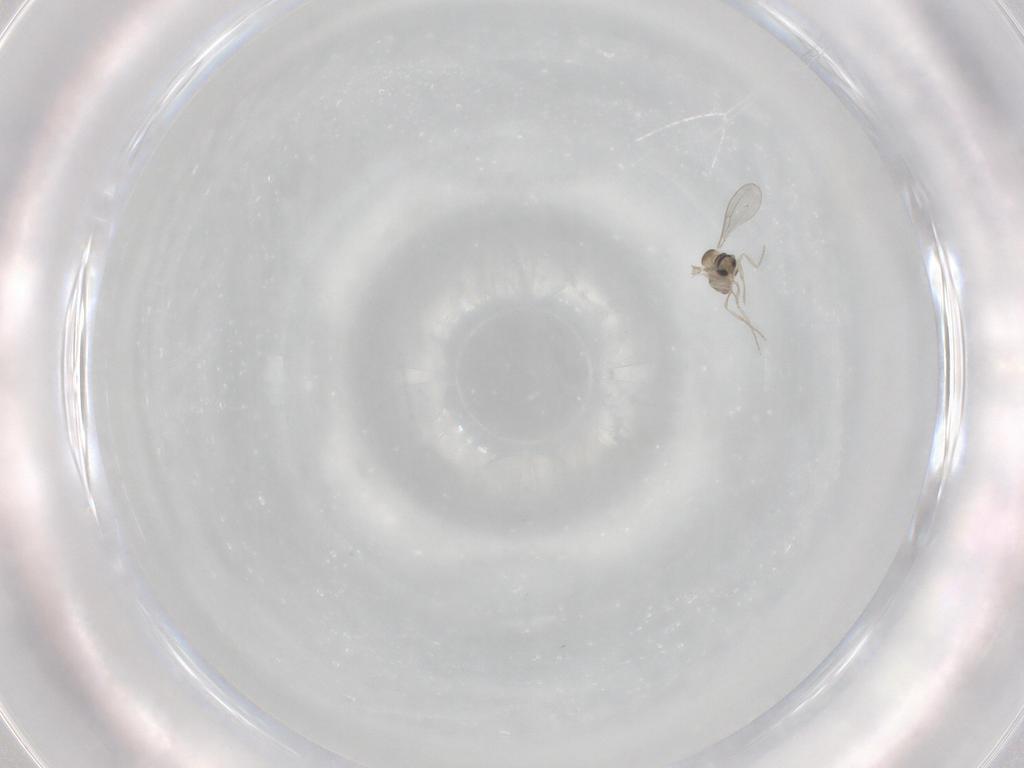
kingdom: Animalia
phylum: Arthropoda
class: Insecta
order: Diptera
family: Cecidomyiidae
